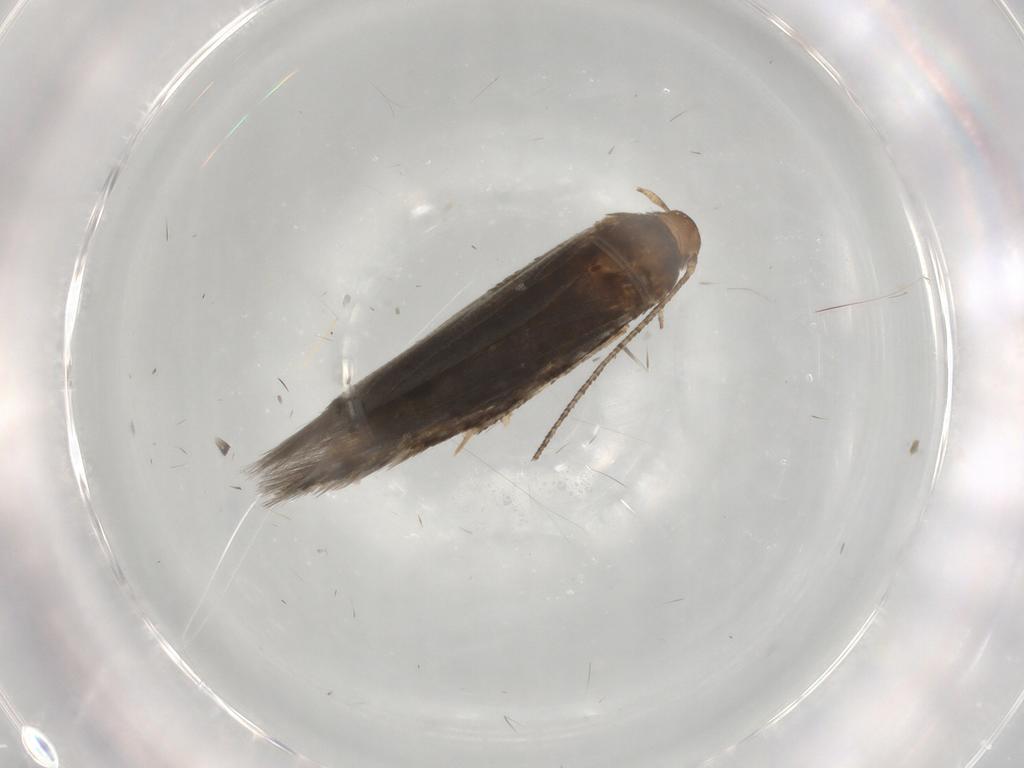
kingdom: Animalia
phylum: Arthropoda
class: Insecta
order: Lepidoptera
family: Momphidae
